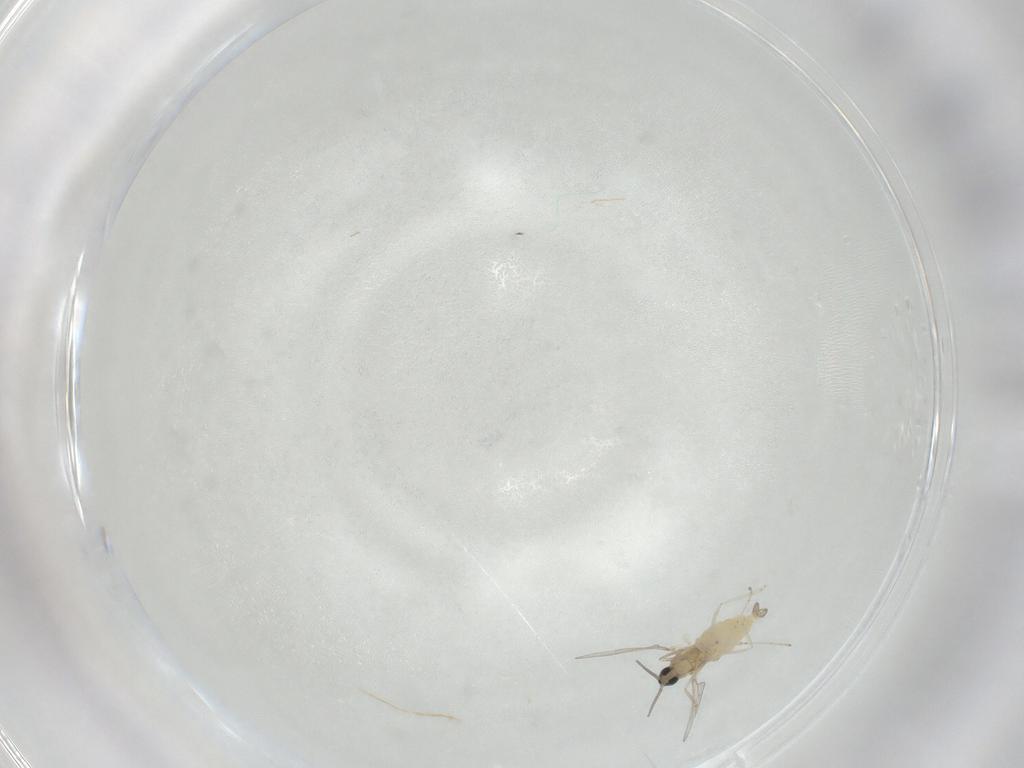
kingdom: Animalia
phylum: Arthropoda
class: Insecta
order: Diptera
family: Cecidomyiidae
